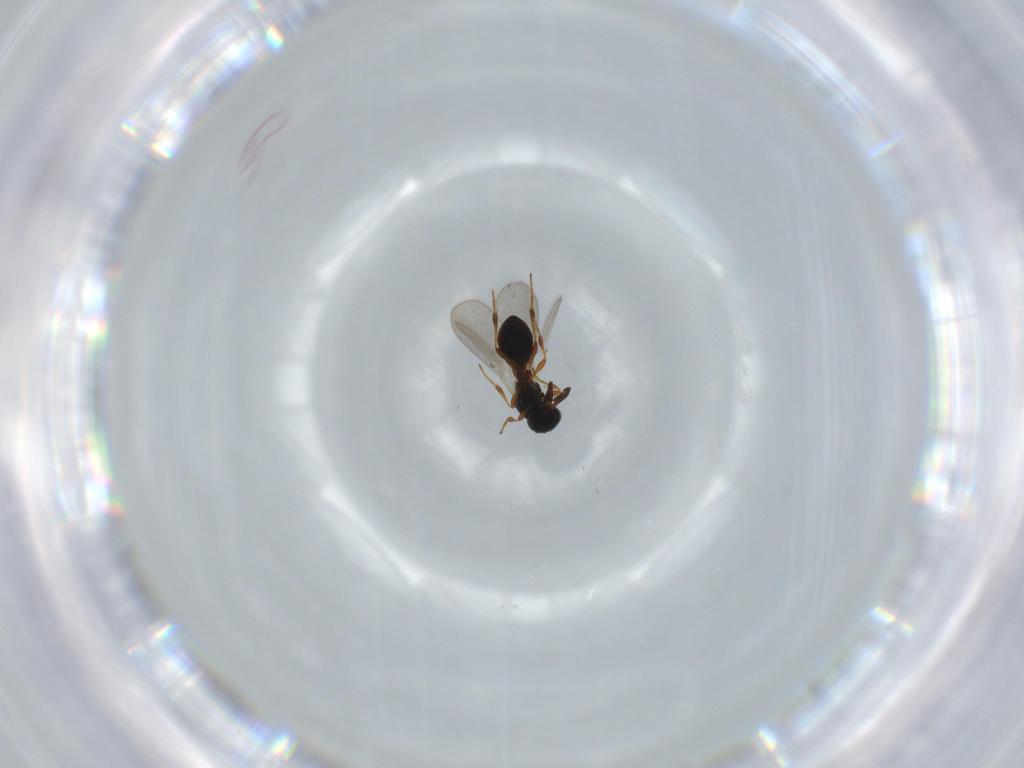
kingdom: Animalia
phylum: Arthropoda
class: Insecta
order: Hymenoptera
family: Platygastridae
